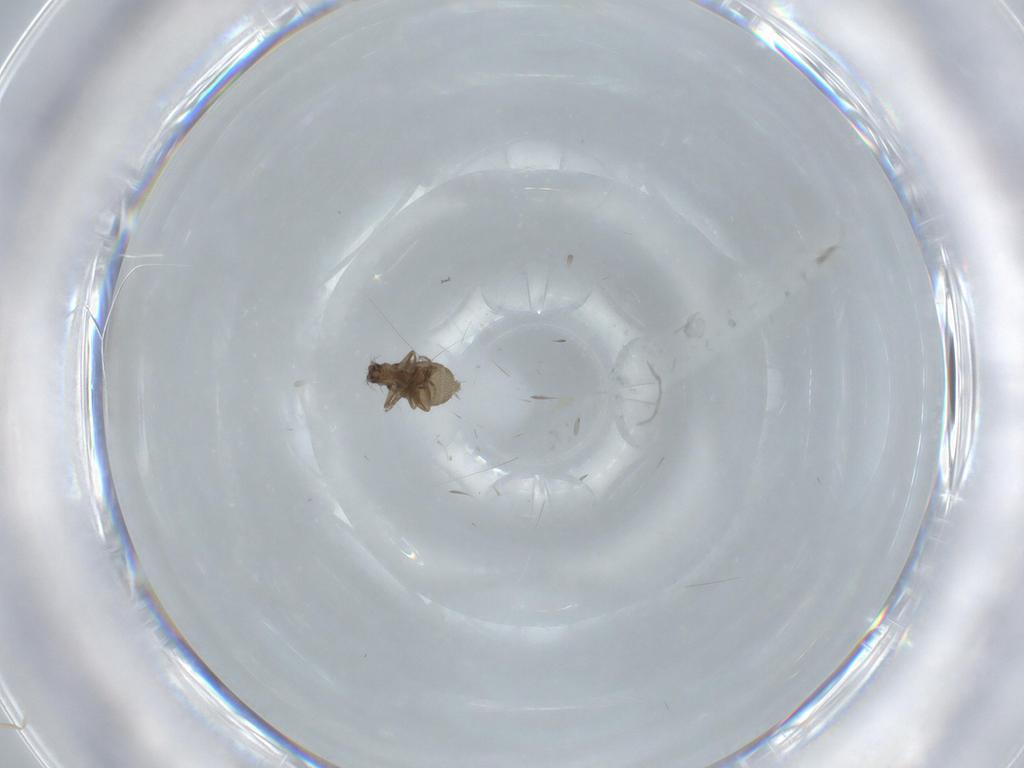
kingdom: Animalia
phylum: Arthropoda
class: Insecta
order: Diptera
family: Phoridae
